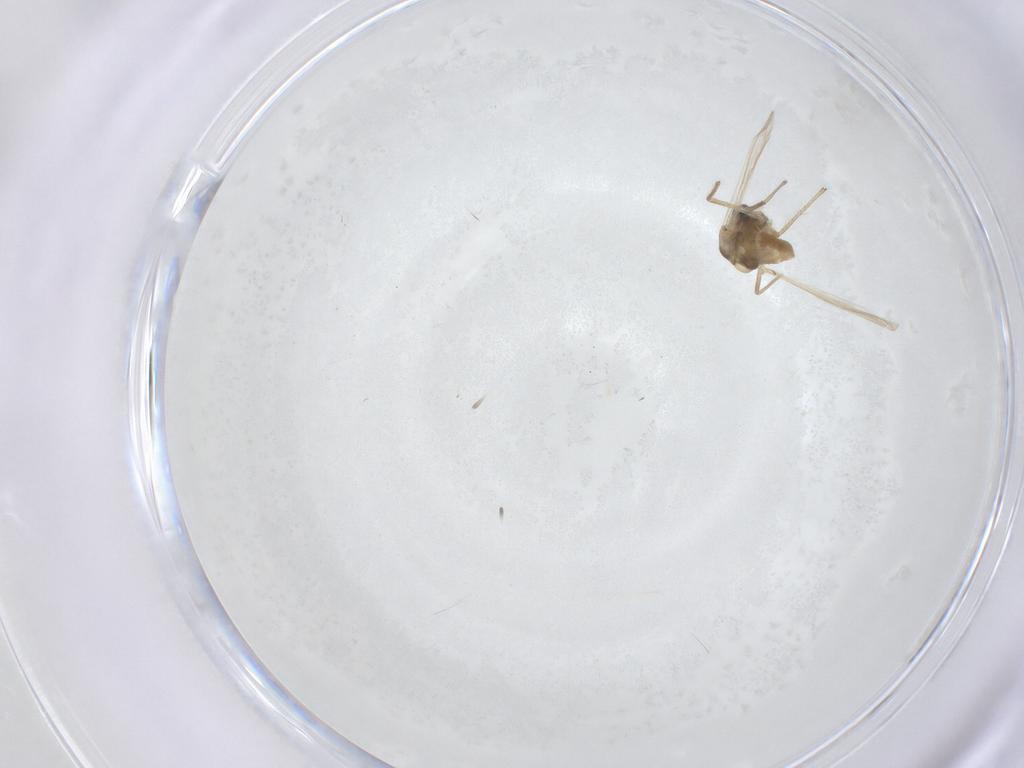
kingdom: Animalia
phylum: Arthropoda
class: Insecta
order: Diptera
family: Chironomidae
